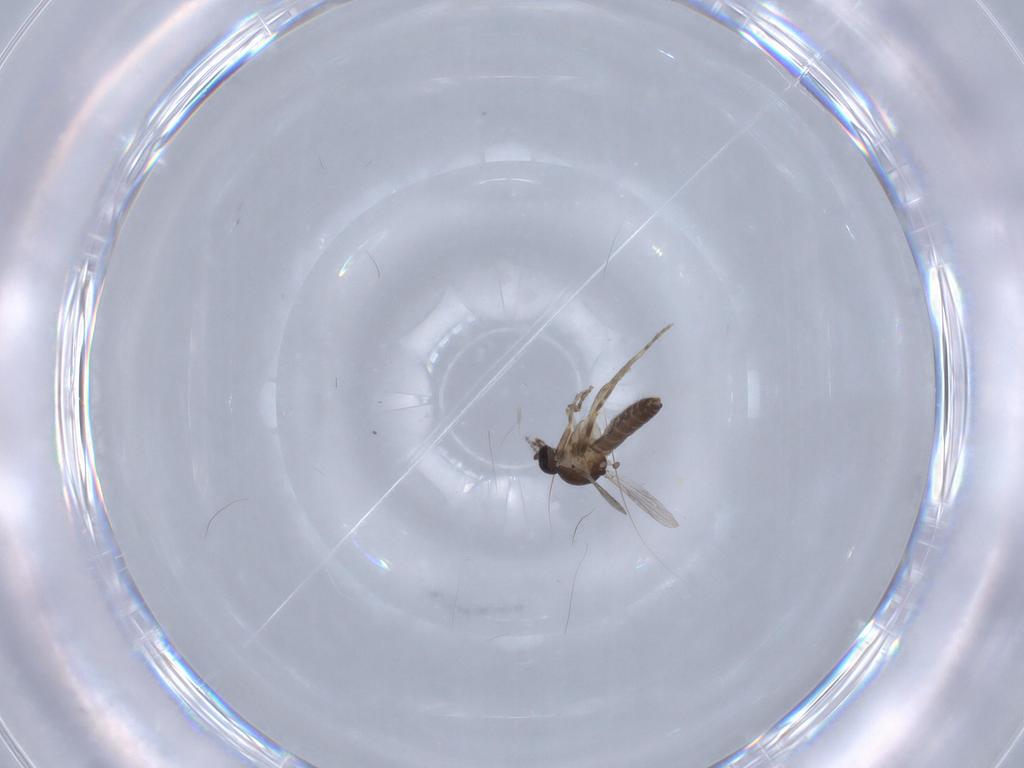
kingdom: Animalia
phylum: Arthropoda
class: Insecta
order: Diptera
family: Ceratopogonidae
